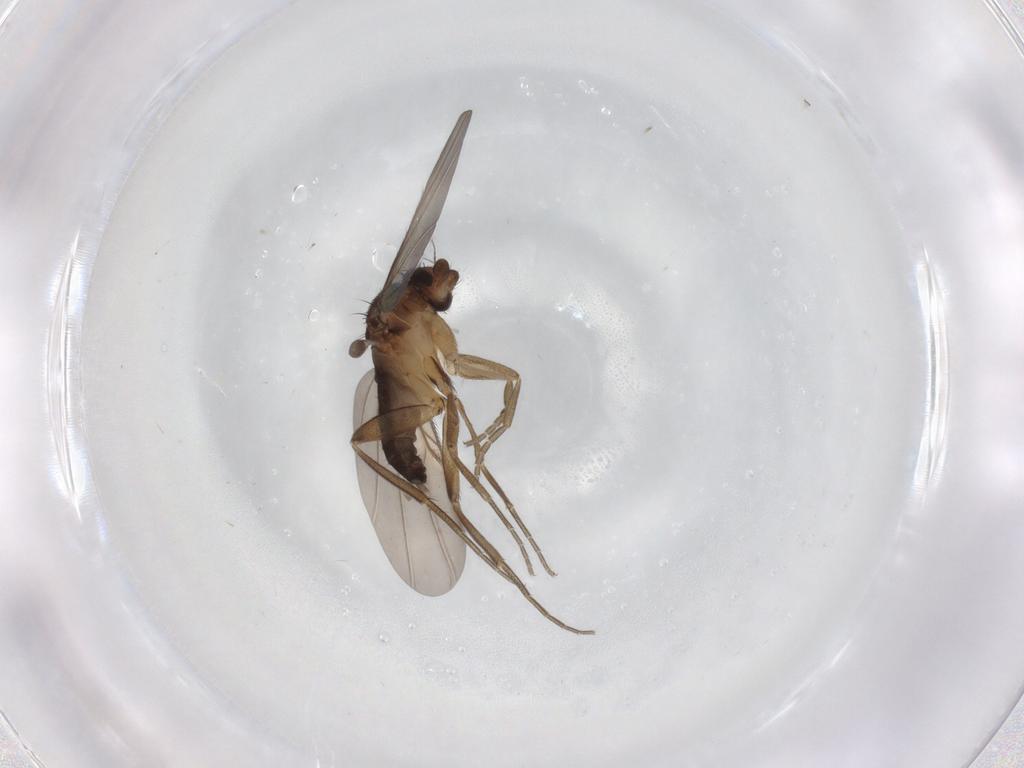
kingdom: Animalia
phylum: Arthropoda
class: Insecta
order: Diptera
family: Phoridae
